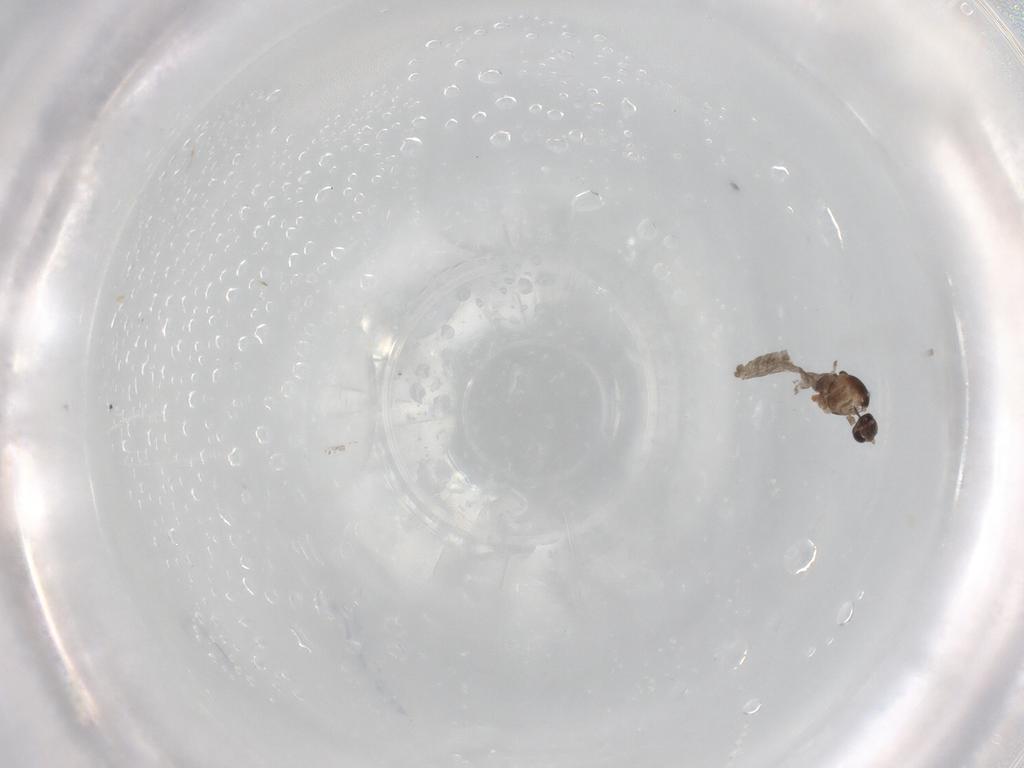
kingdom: Animalia
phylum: Arthropoda
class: Insecta
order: Diptera
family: Cecidomyiidae
